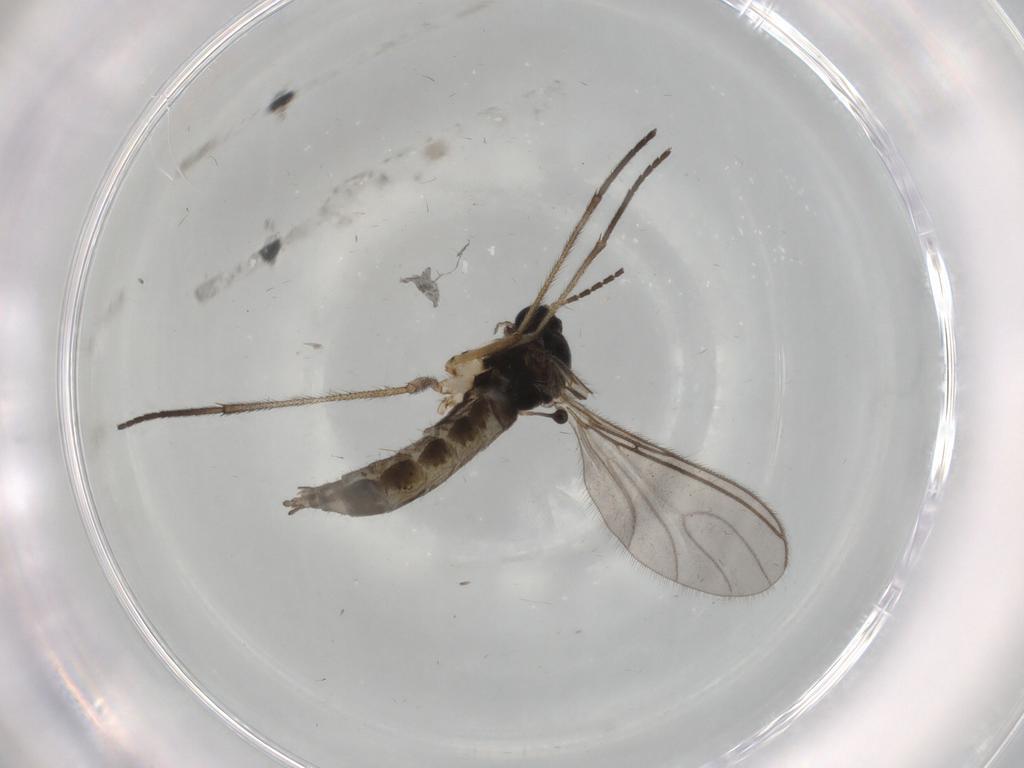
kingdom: Animalia
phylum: Arthropoda
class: Insecta
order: Diptera
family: Sciaridae
